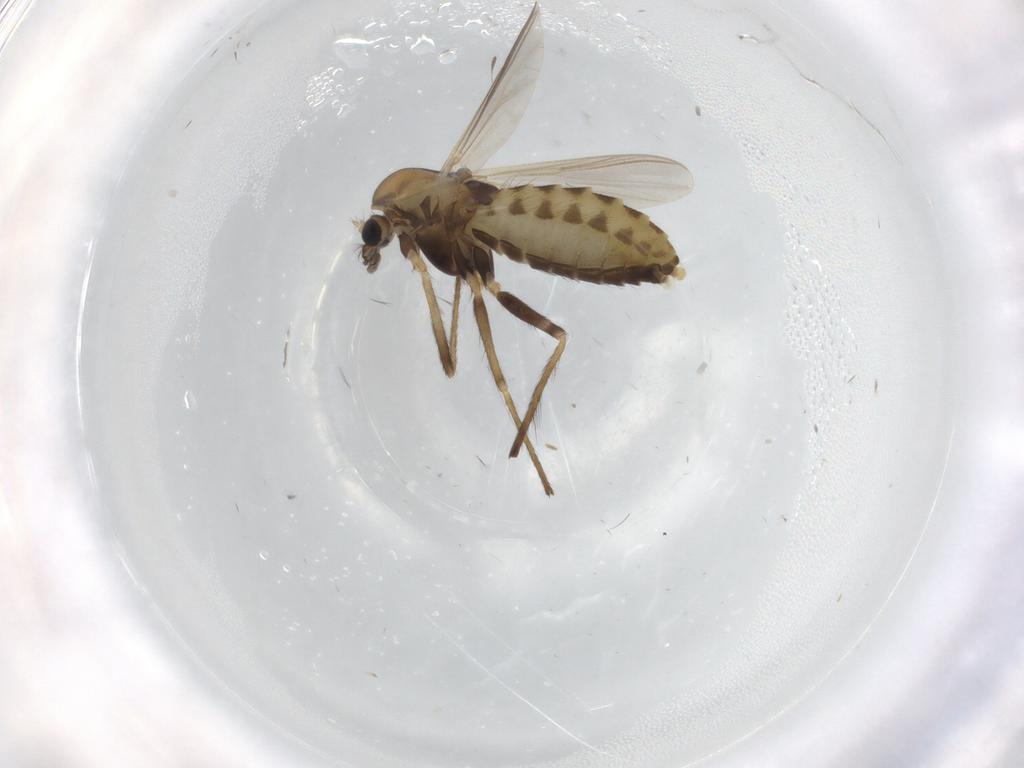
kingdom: Animalia
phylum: Arthropoda
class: Insecta
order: Diptera
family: Chironomidae
